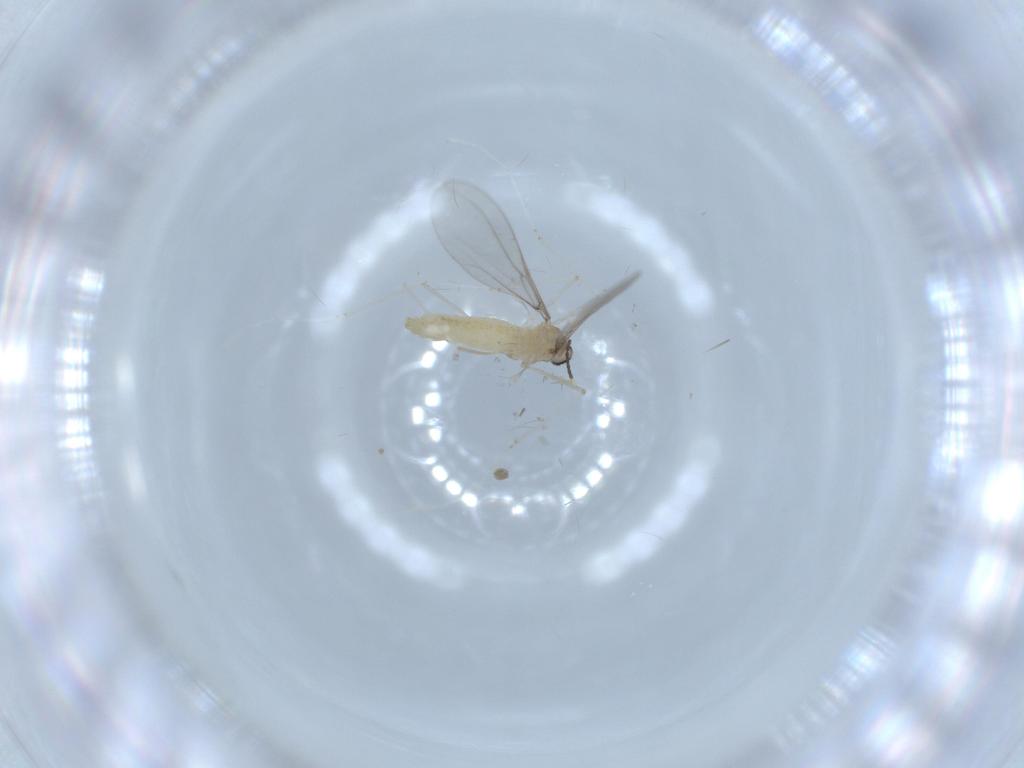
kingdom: Animalia
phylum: Arthropoda
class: Insecta
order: Diptera
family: Cecidomyiidae
